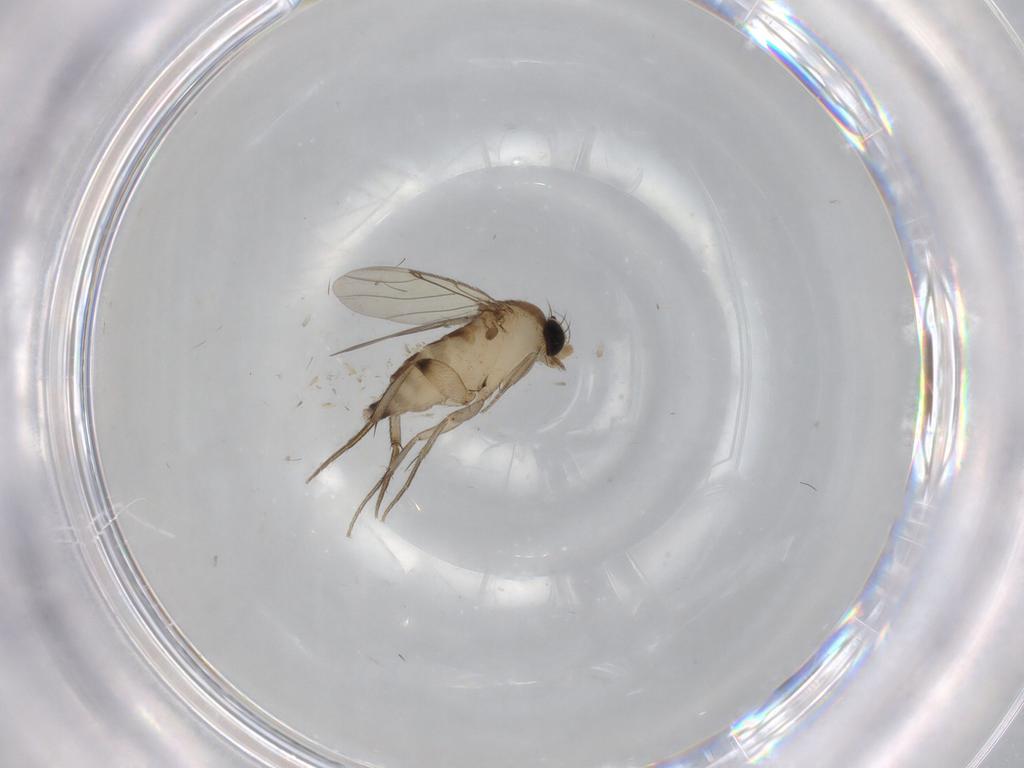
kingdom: Animalia
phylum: Arthropoda
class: Insecta
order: Diptera
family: Phoridae
